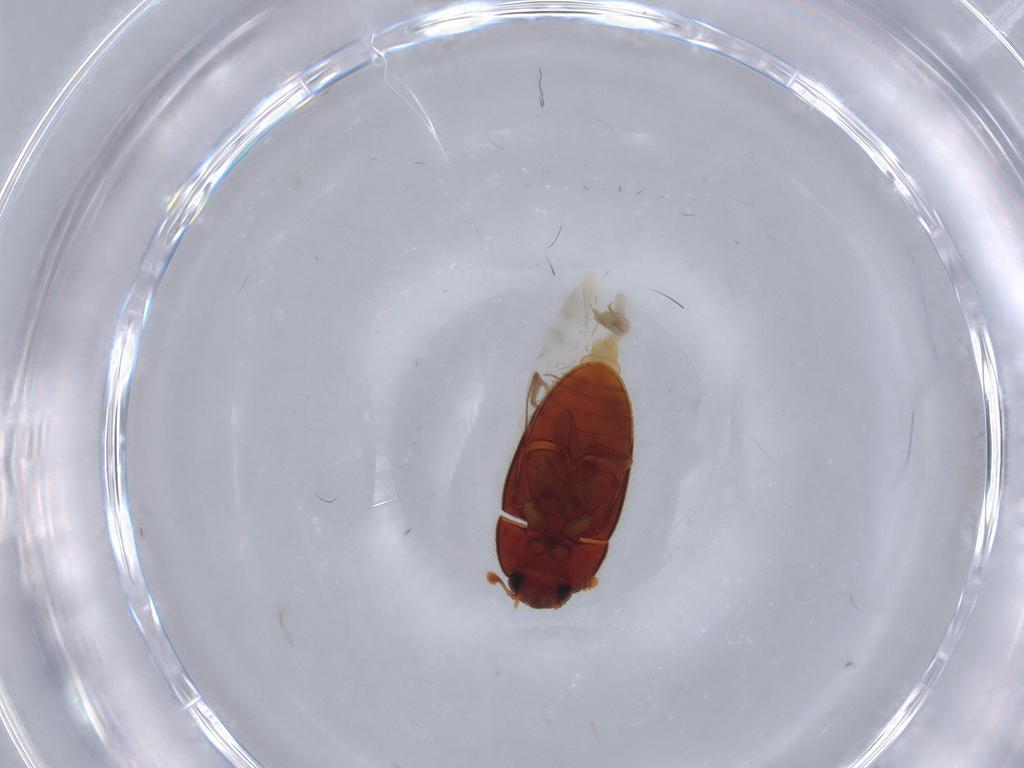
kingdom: Animalia
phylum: Arthropoda
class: Insecta
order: Coleoptera
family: Biphyllidae
